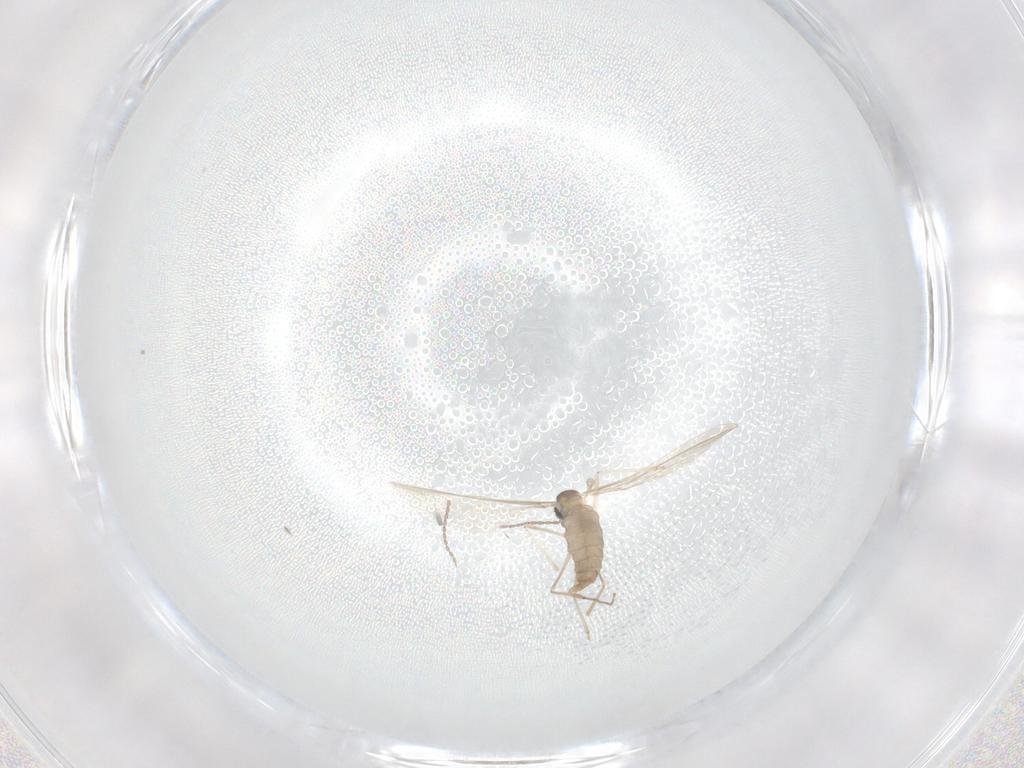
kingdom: Animalia
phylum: Arthropoda
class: Insecta
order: Diptera
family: Cecidomyiidae
